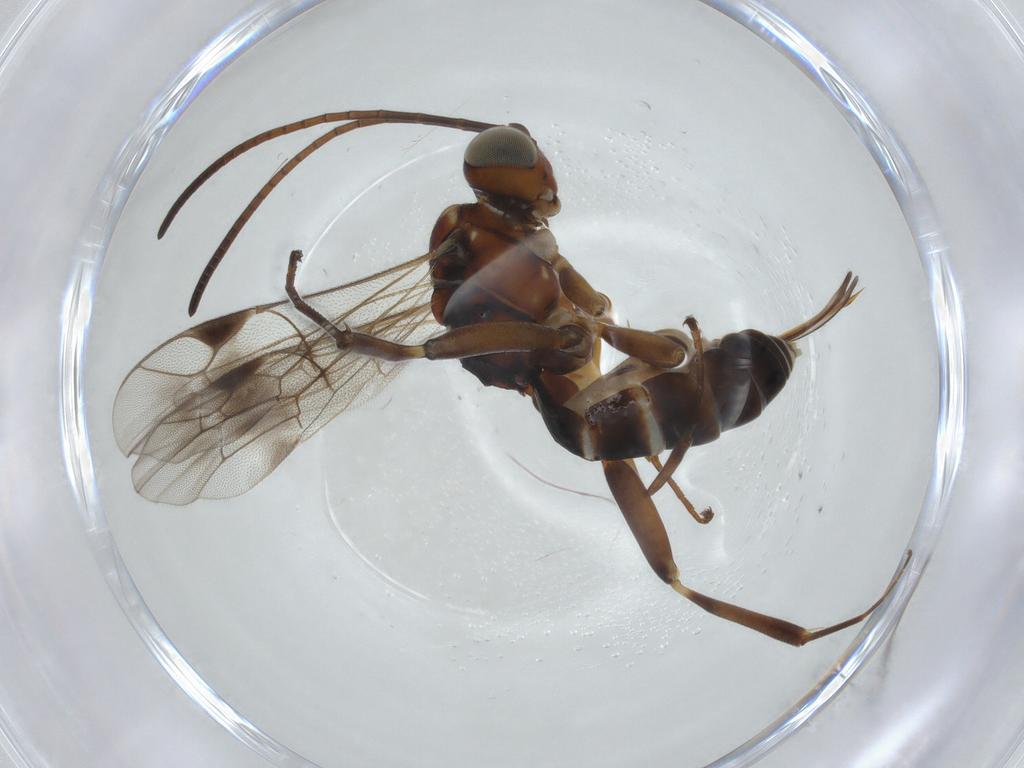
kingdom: Animalia
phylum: Arthropoda
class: Insecta
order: Hymenoptera
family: Ichneumonidae
